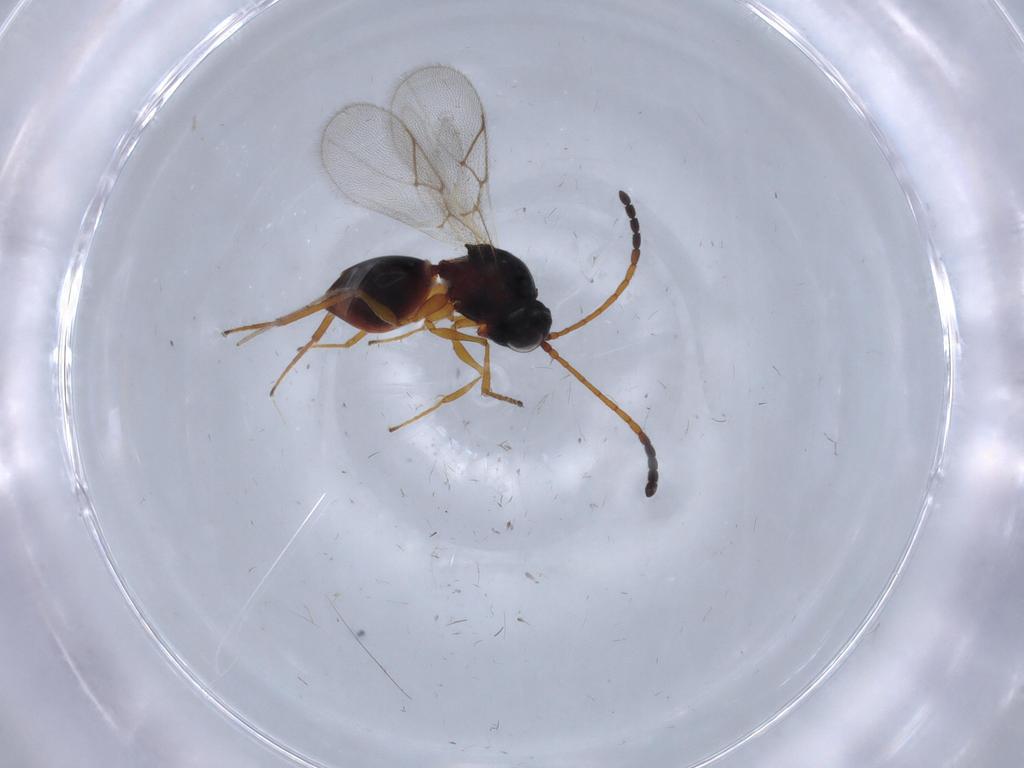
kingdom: Animalia
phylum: Arthropoda
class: Insecta
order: Hymenoptera
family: Figitidae
